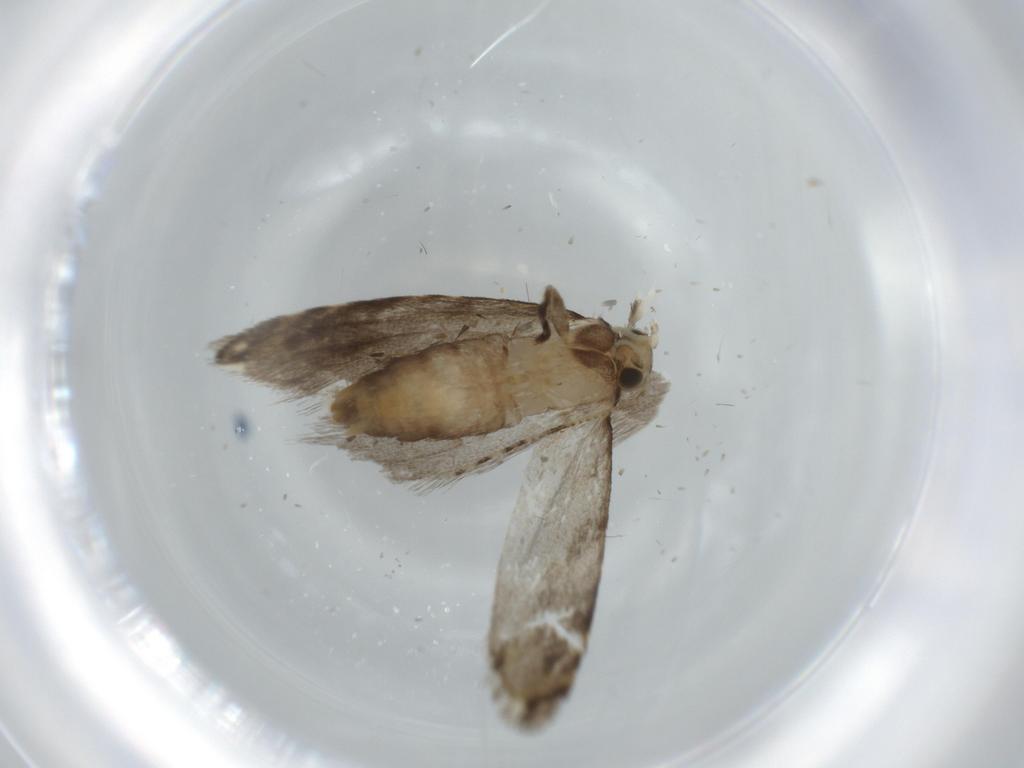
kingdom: Animalia
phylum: Arthropoda
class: Insecta
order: Lepidoptera
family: Tineidae
